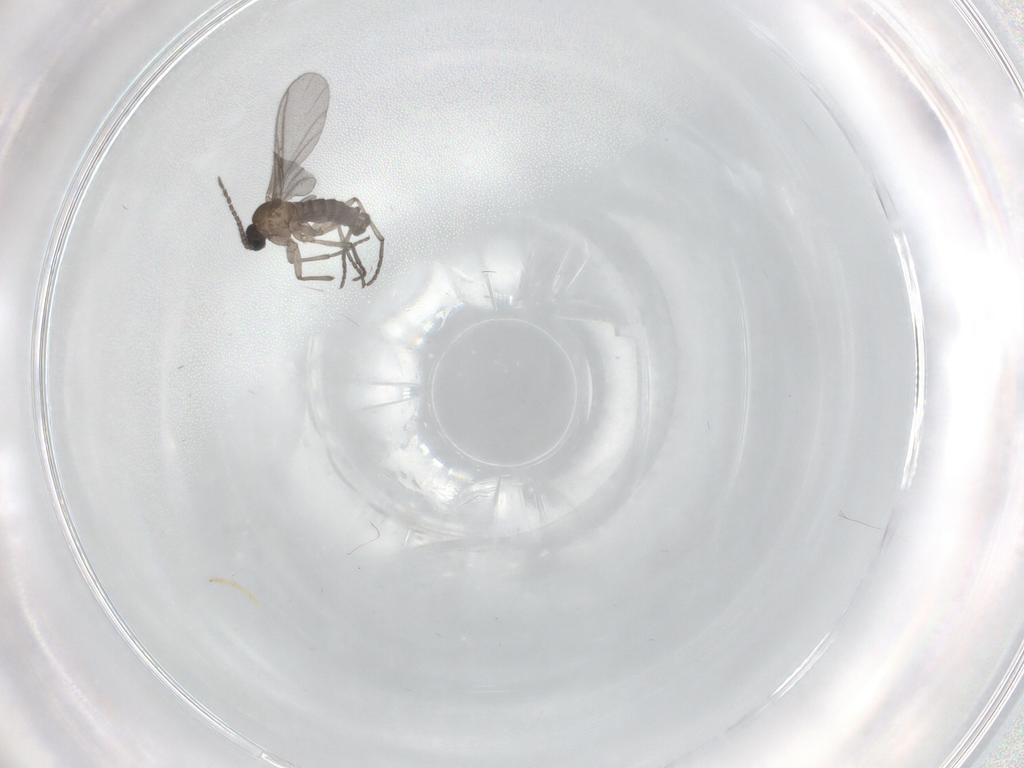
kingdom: Animalia
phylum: Arthropoda
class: Insecta
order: Diptera
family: Sciaridae
